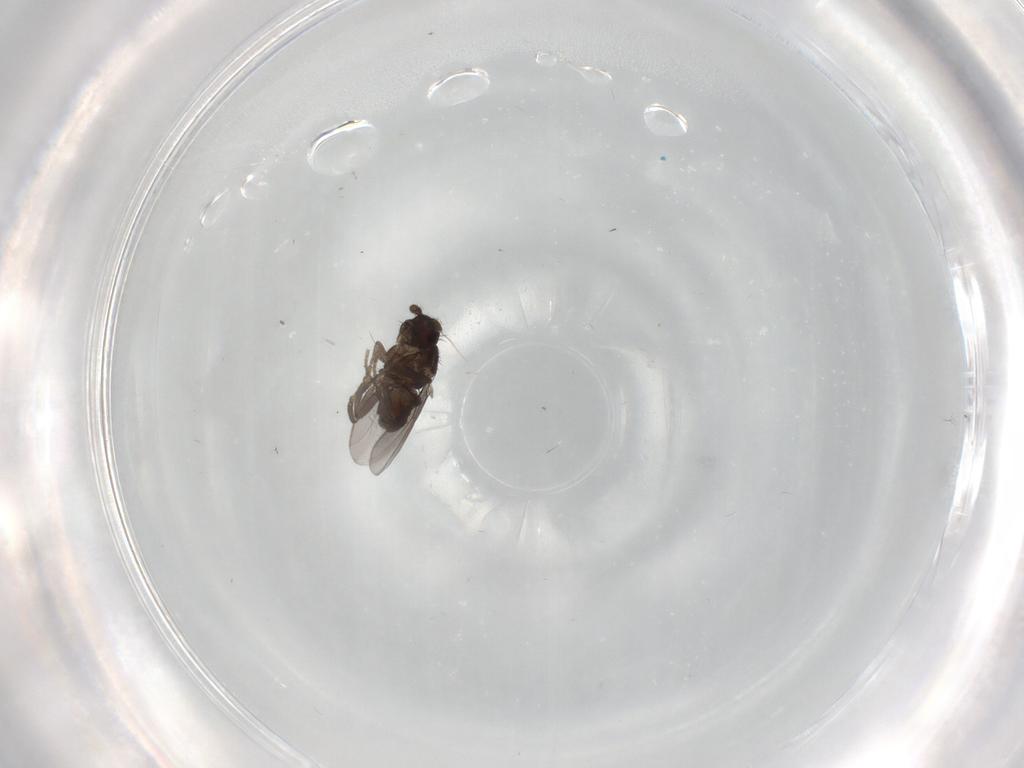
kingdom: Animalia
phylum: Arthropoda
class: Insecta
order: Diptera
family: Sphaeroceridae
